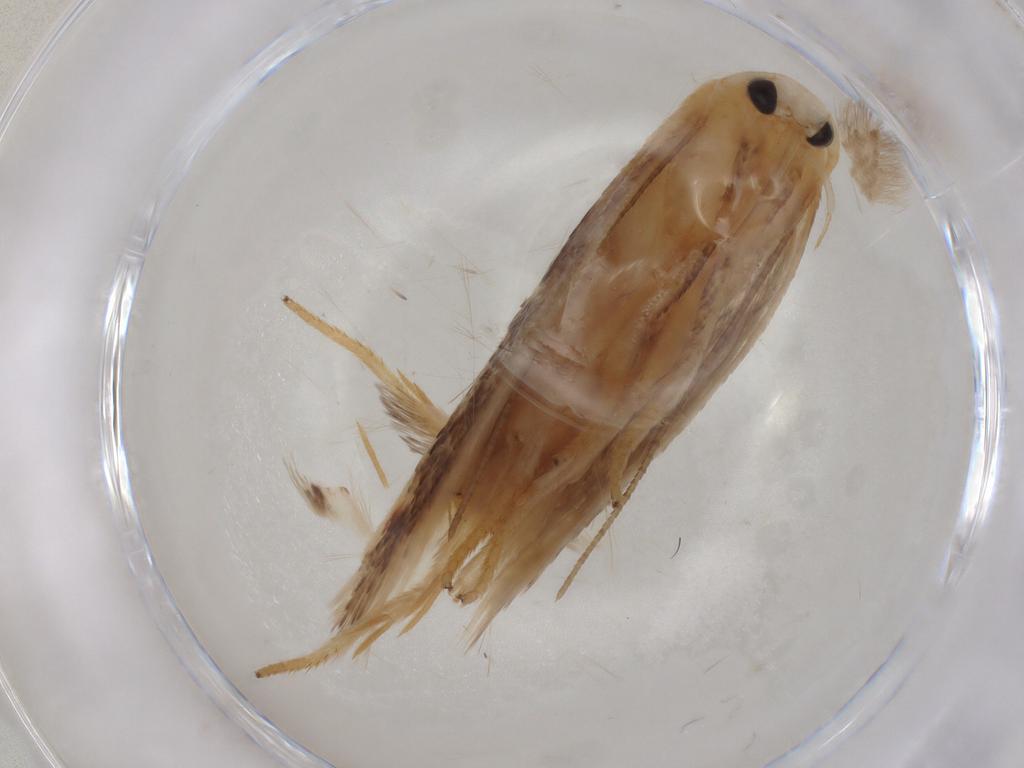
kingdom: Animalia
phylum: Arthropoda
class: Insecta
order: Lepidoptera
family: Geometridae
